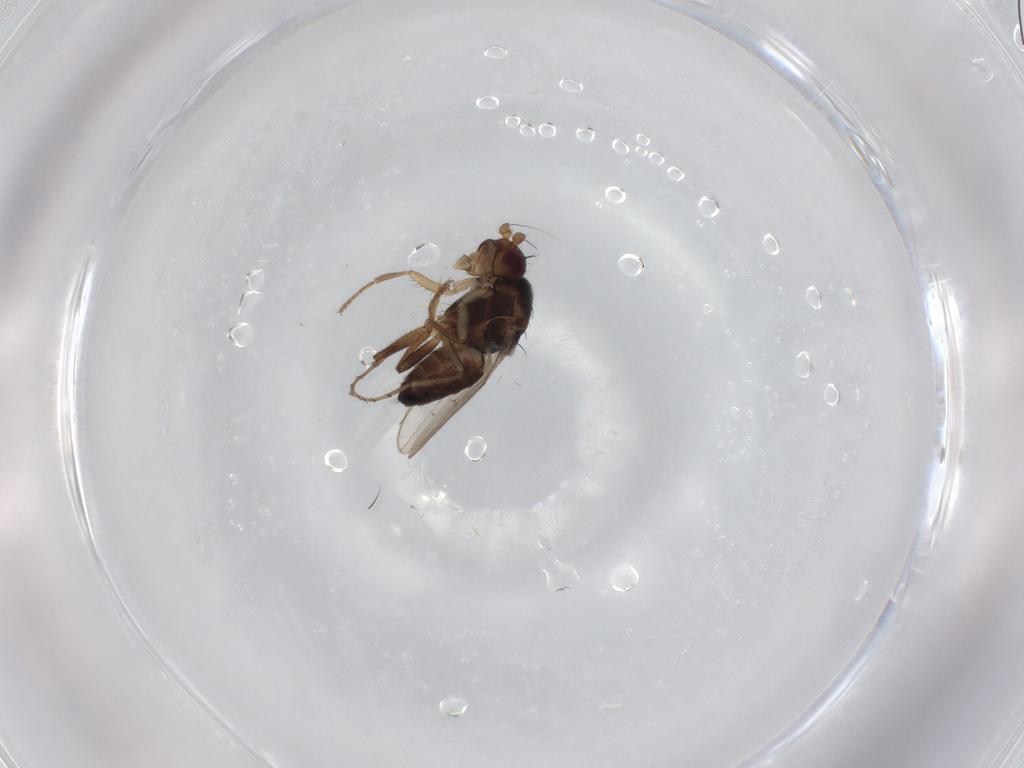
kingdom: Animalia
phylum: Arthropoda
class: Insecta
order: Diptera
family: Sphaeroceridae
